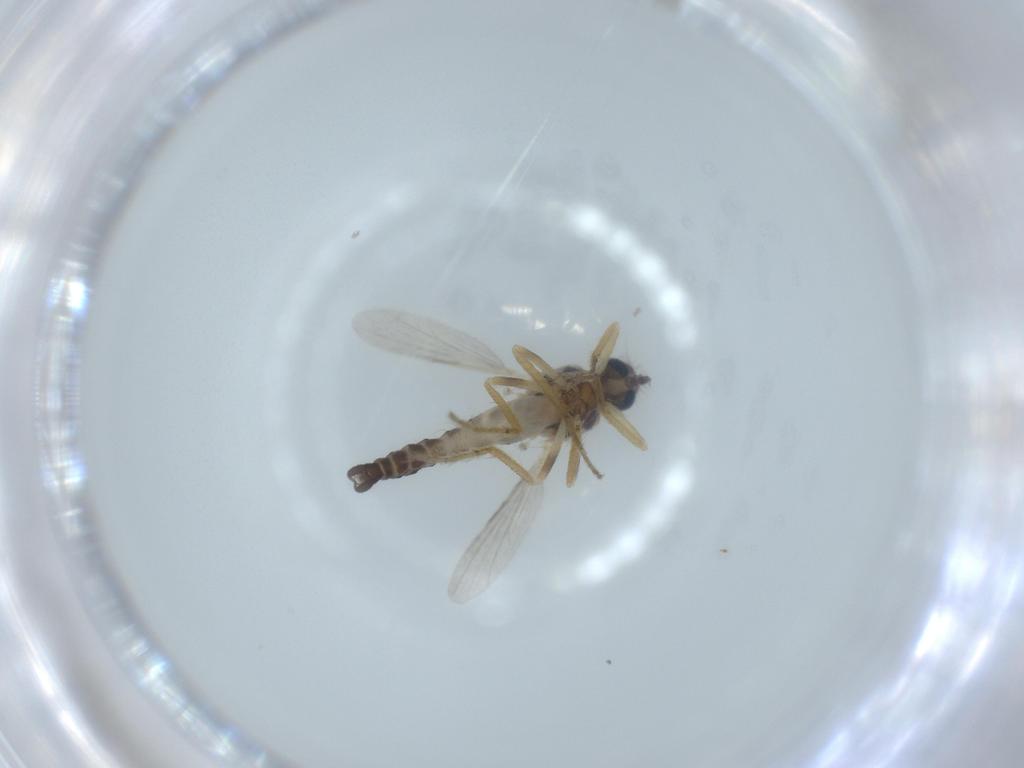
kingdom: Animalia
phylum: Arthropoda
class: Insecta
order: Diptera
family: Ceratopogonidae
